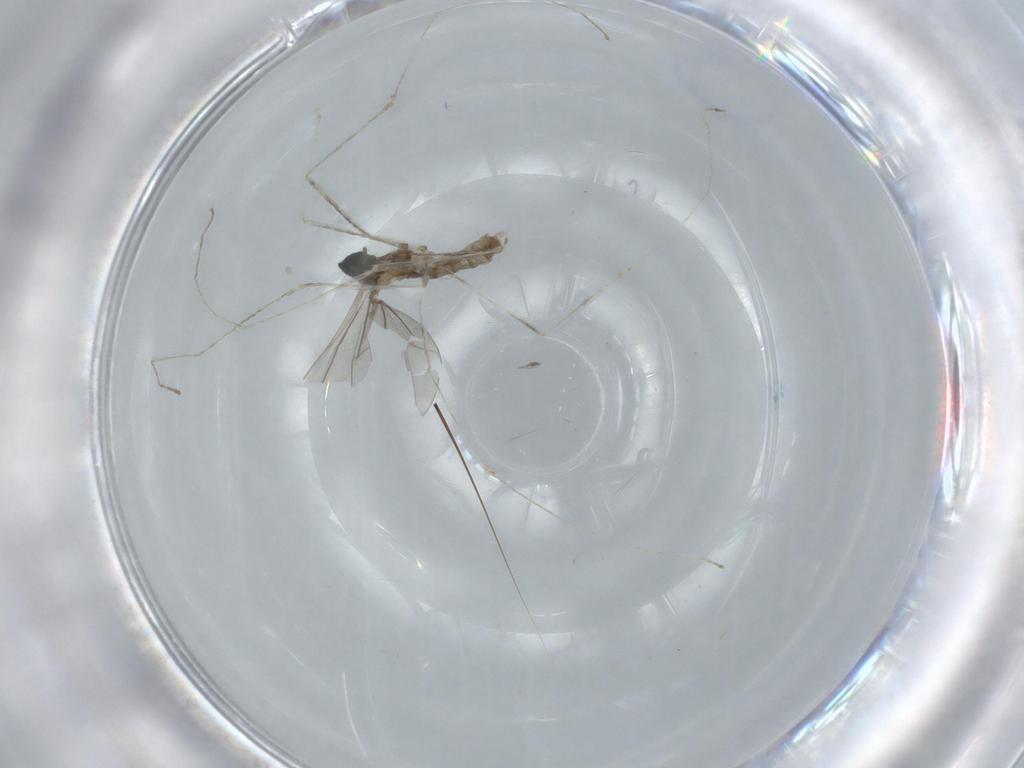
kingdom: Animalia
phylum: Arthropoda
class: Insecta
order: Diptera
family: Cecidomyiidae
